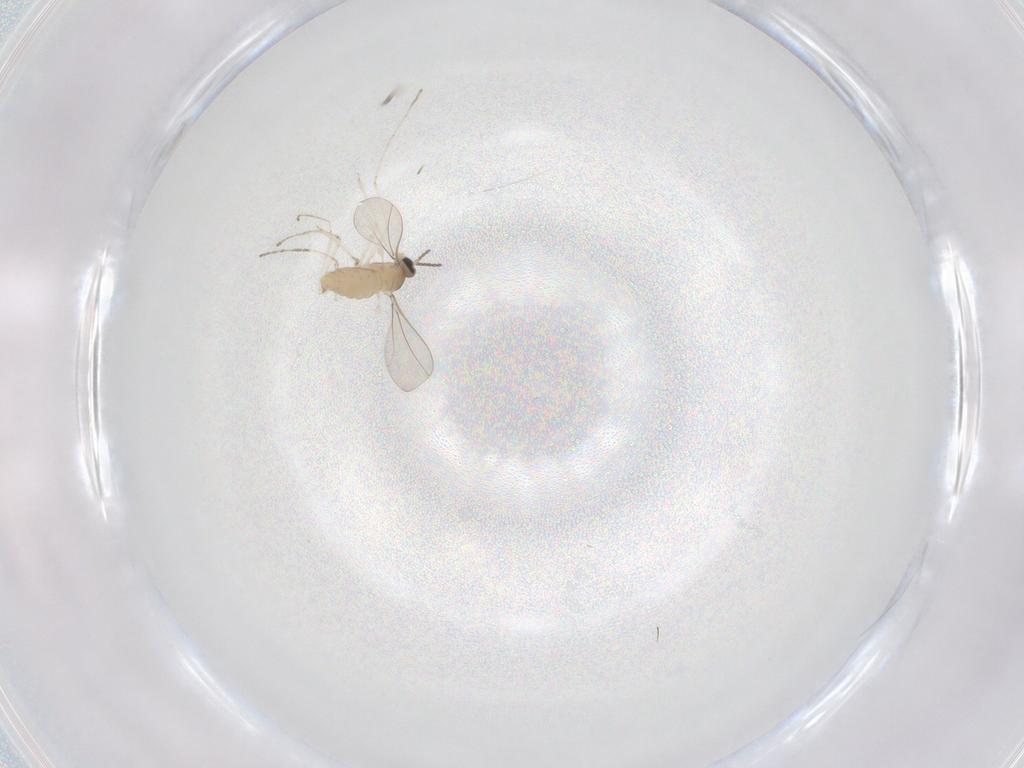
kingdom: Animalia
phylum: Arthropoda
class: Insecta
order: Diptera
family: Cecidomyiidae
